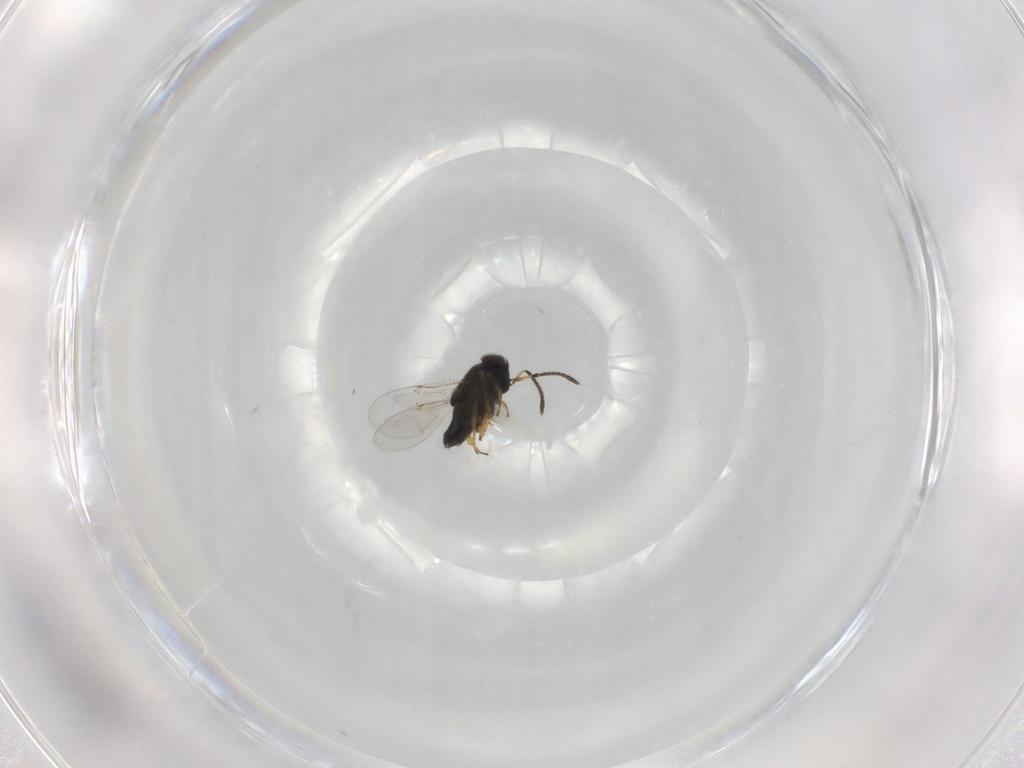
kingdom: Animalia
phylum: Arthropoda
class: Insecta
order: Hymenoptera
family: Encyrtidae
